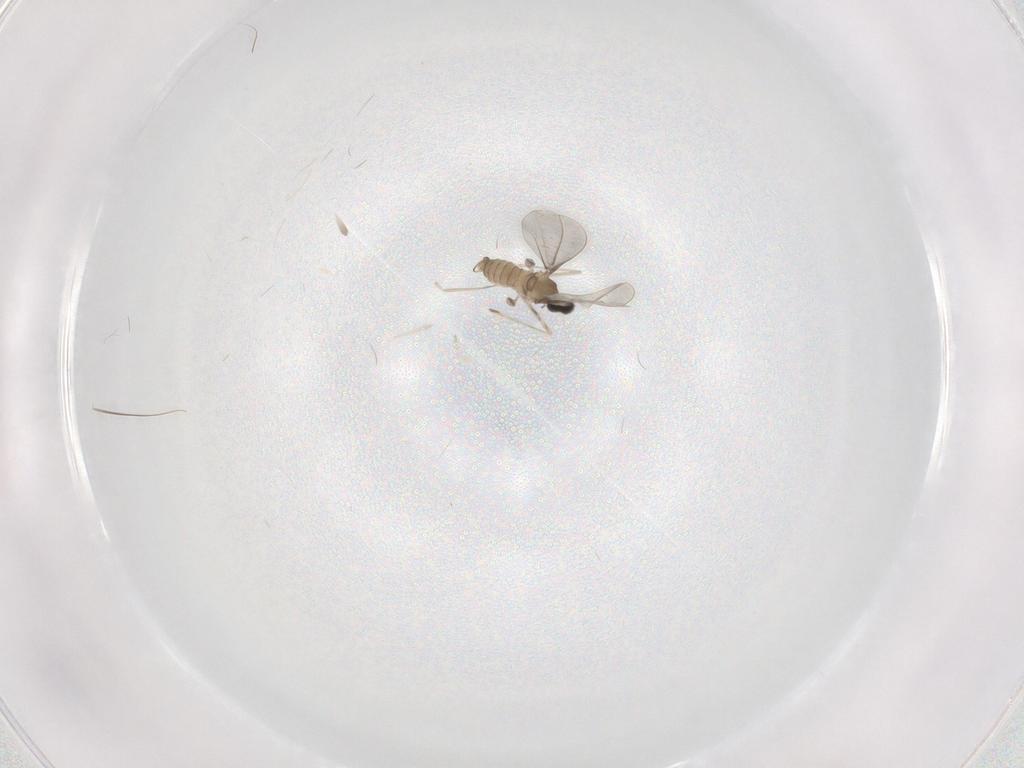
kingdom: Animalia
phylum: Arthropoda
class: Insecta
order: Diptera
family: Cecidomyiidae
